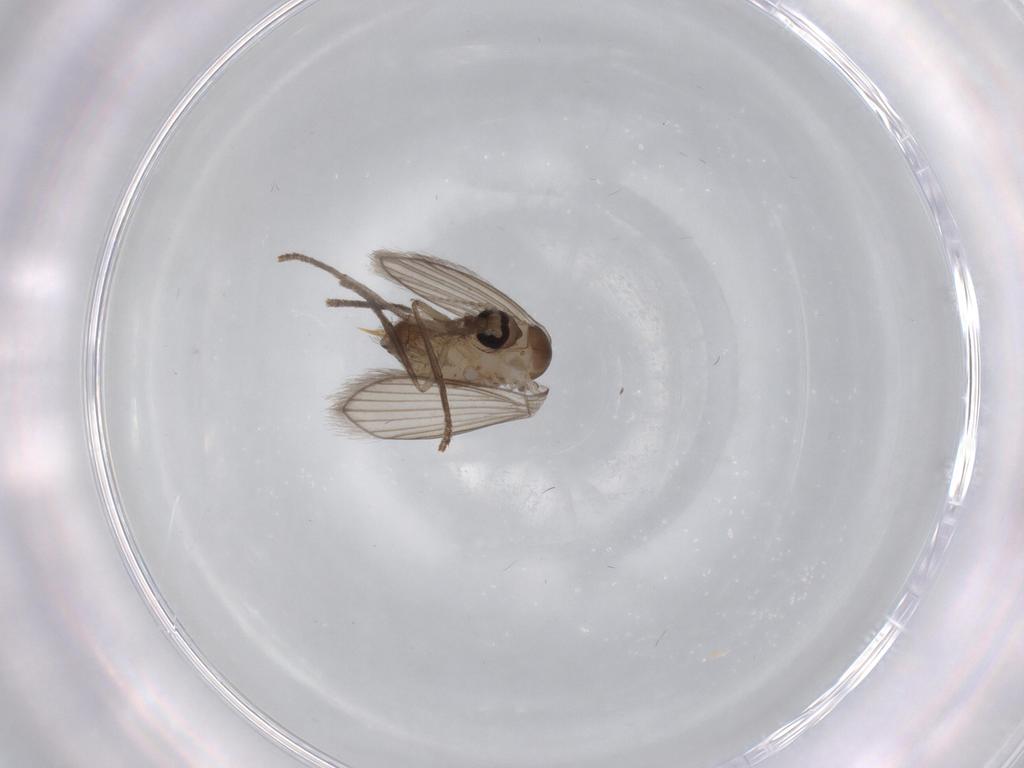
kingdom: Animalia
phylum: Arthropoda
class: Insecta
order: Diptera
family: Psychodidae
